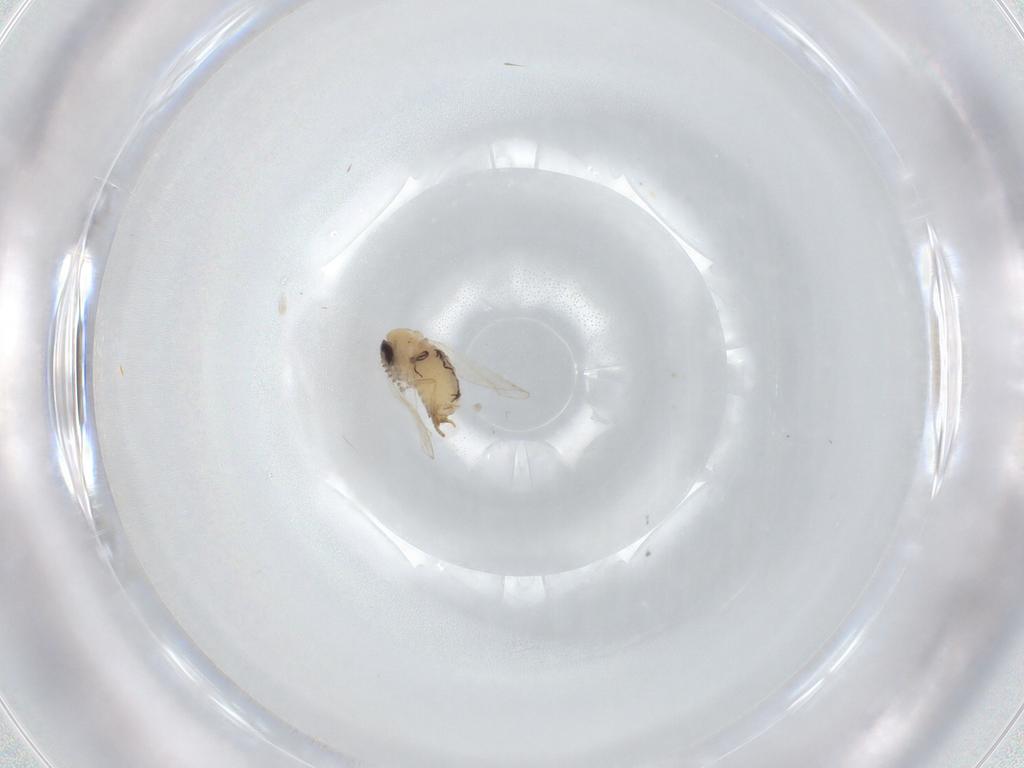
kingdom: Animalia
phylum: Arthropoda
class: Insecta
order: Diptera
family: Psychodidae
